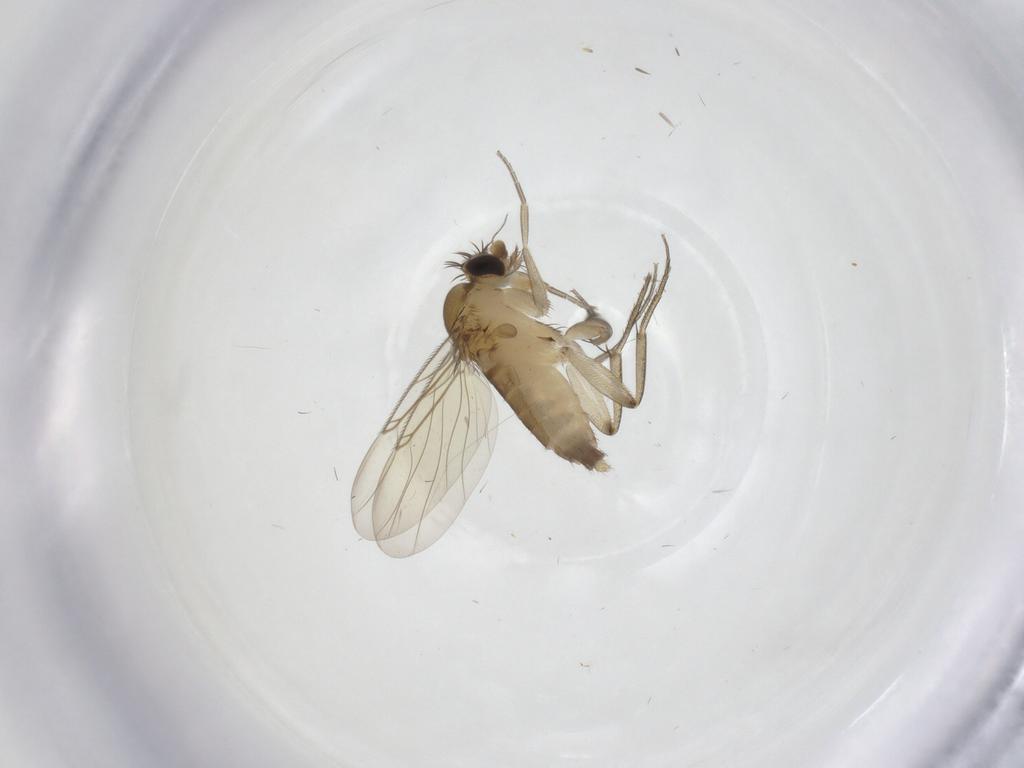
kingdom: Animalia
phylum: Arthropoda
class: Insecta
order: Diptera
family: Phoridae
